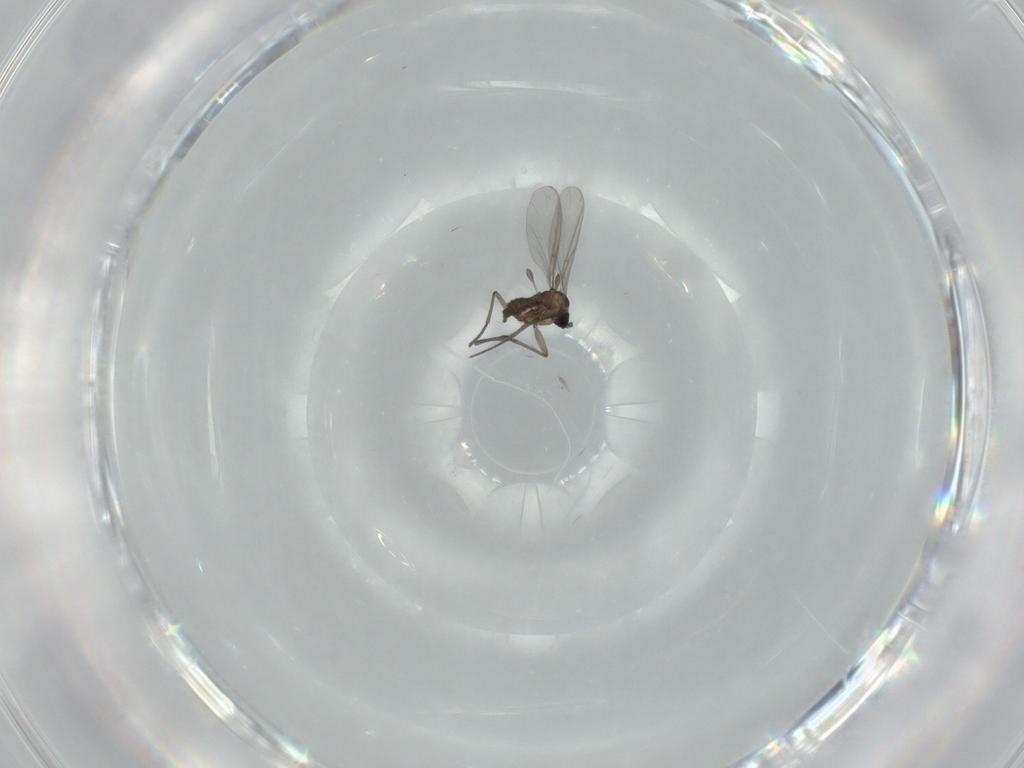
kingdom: Animalia
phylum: Arthropoda
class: Insecta
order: Diptera
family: Sciaridae
